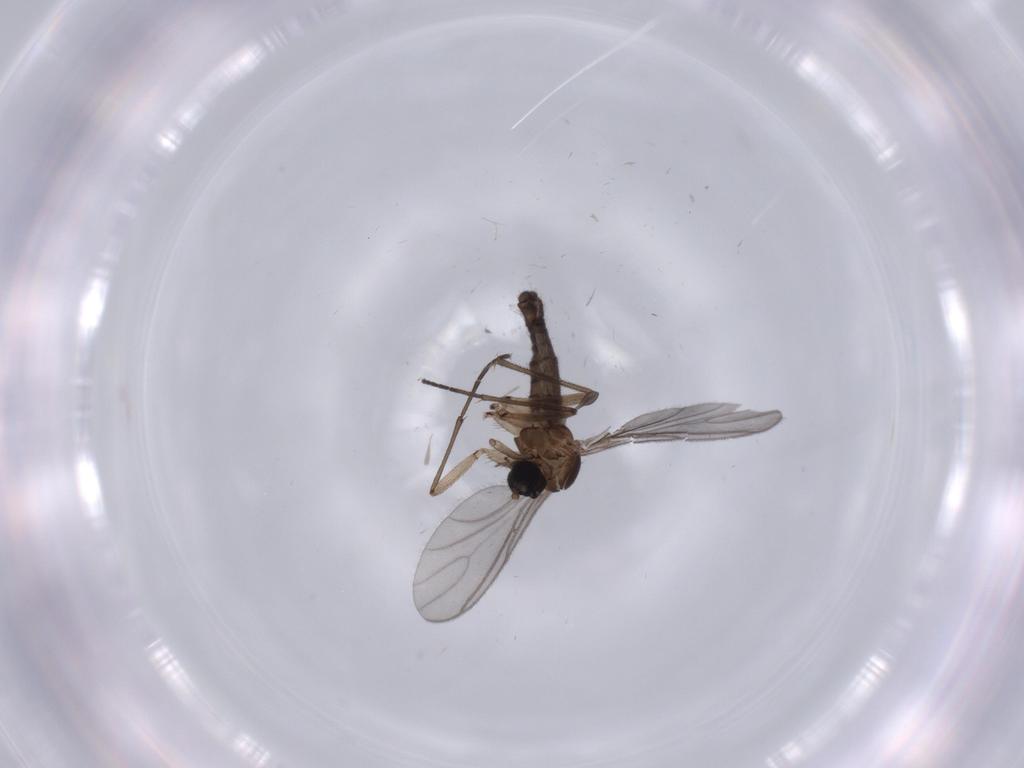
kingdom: Animalia
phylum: Arthropoda
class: Insecta
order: Diptera
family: Sciaridae
